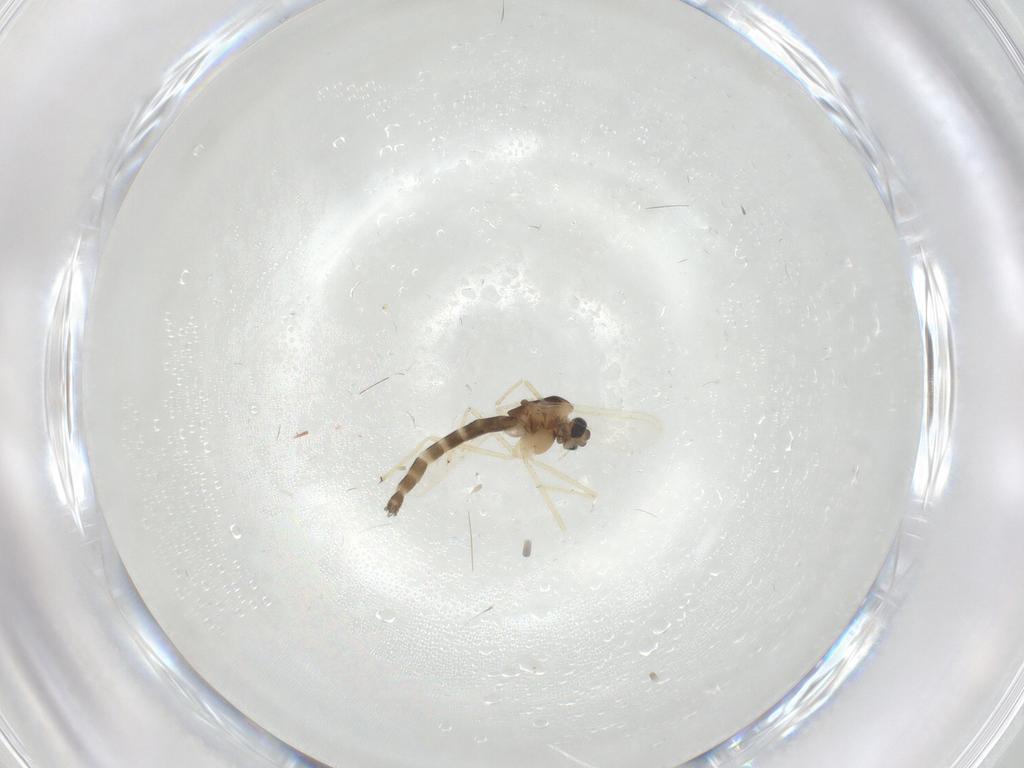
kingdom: Animalia
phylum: Arthropoda
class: Insecta
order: Diptera
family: Chironomidae
